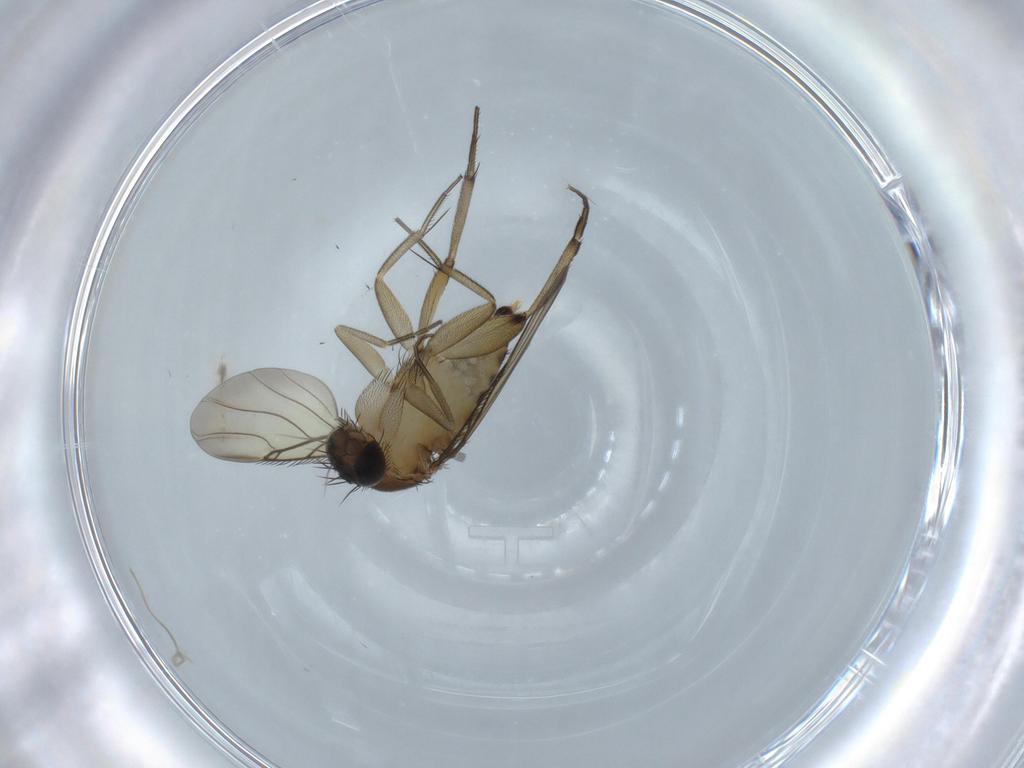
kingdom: Animalia
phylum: Arthropoda
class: Insecta
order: Diptera
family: Phoridae
